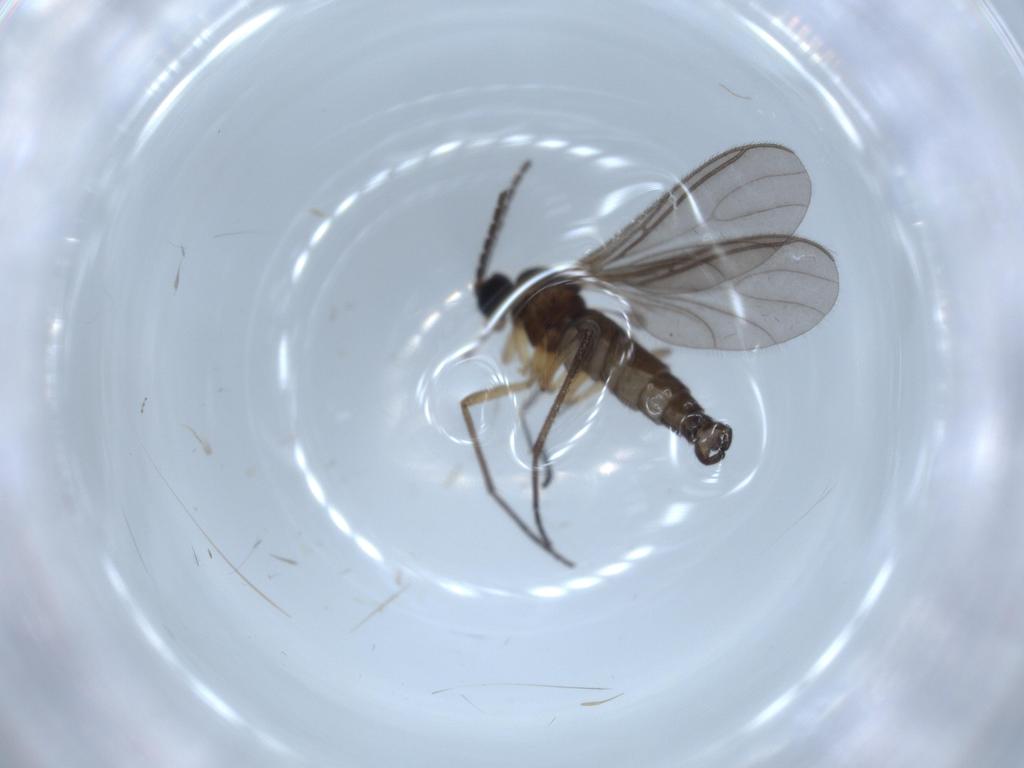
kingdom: Animalia
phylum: Arthropoda
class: Insecta
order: Diptera
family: Sciaridae
